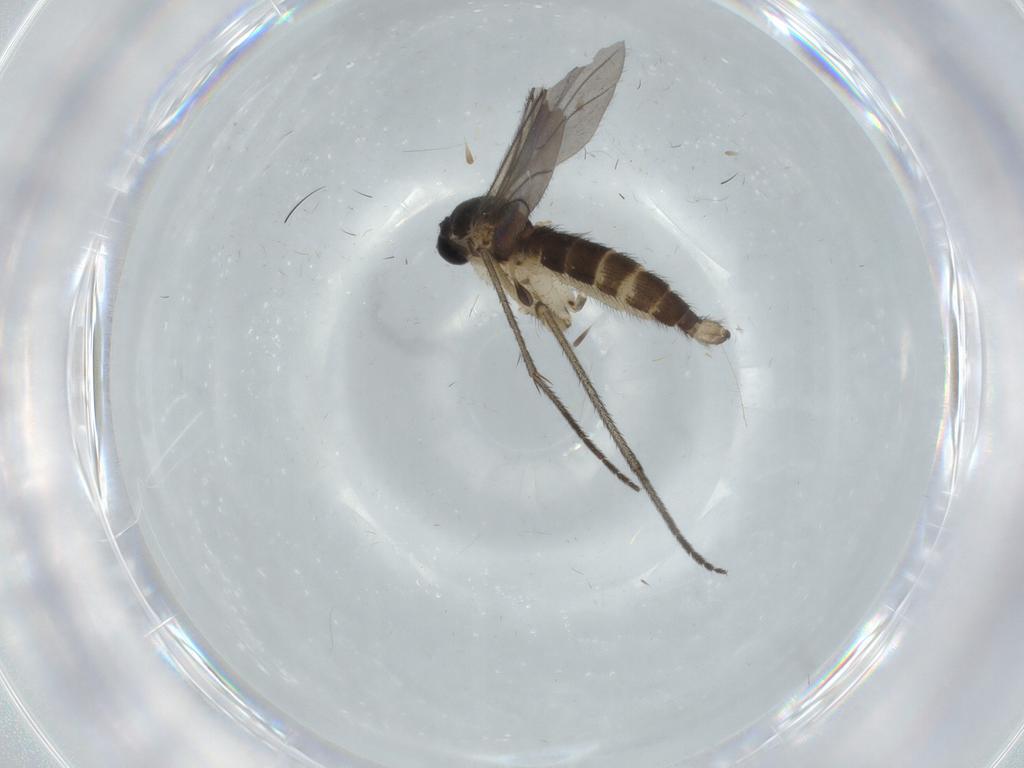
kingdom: Animalia
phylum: Arthropoda
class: Insecta
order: Diptera
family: Sciaridae
